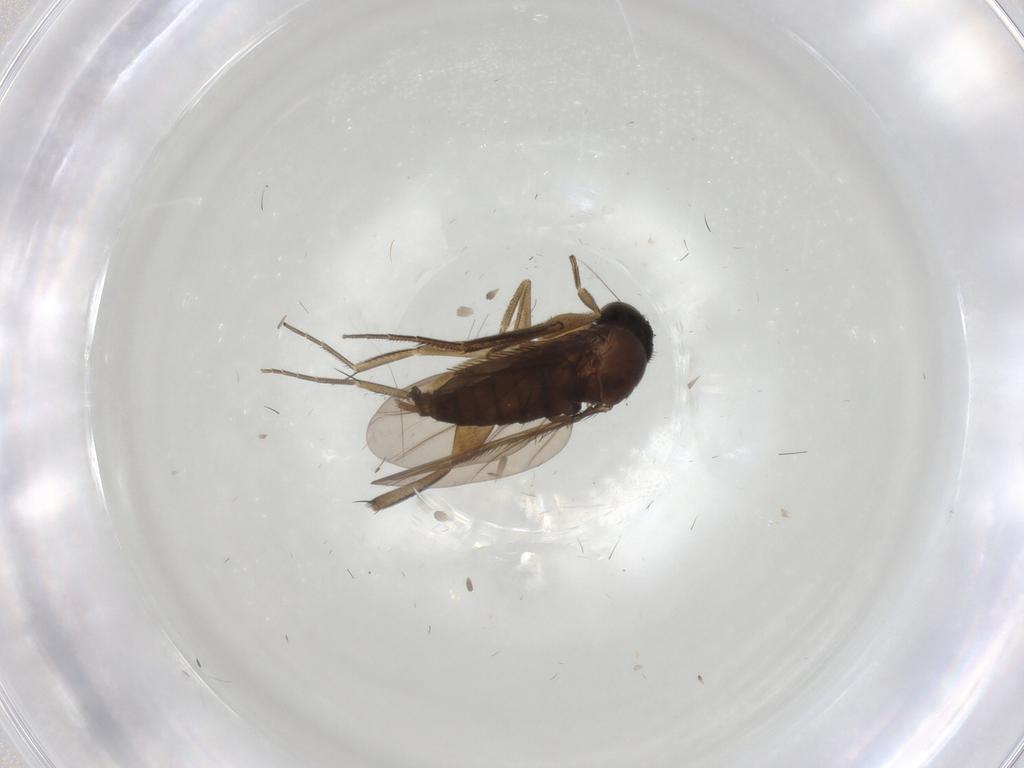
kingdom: Animalia
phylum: Arthropoda
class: Insecta
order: Diptera
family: Phoridae
